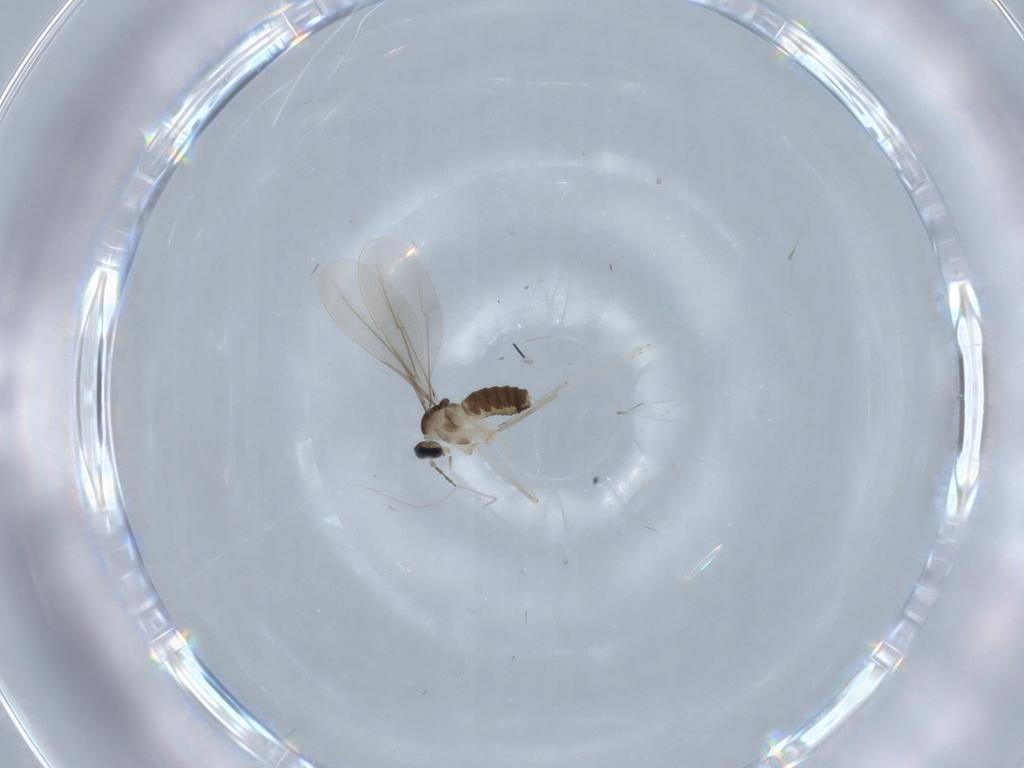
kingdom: Animalia
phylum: Arthropoda
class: Insecta
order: Diptera
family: Cecidomyiidae
